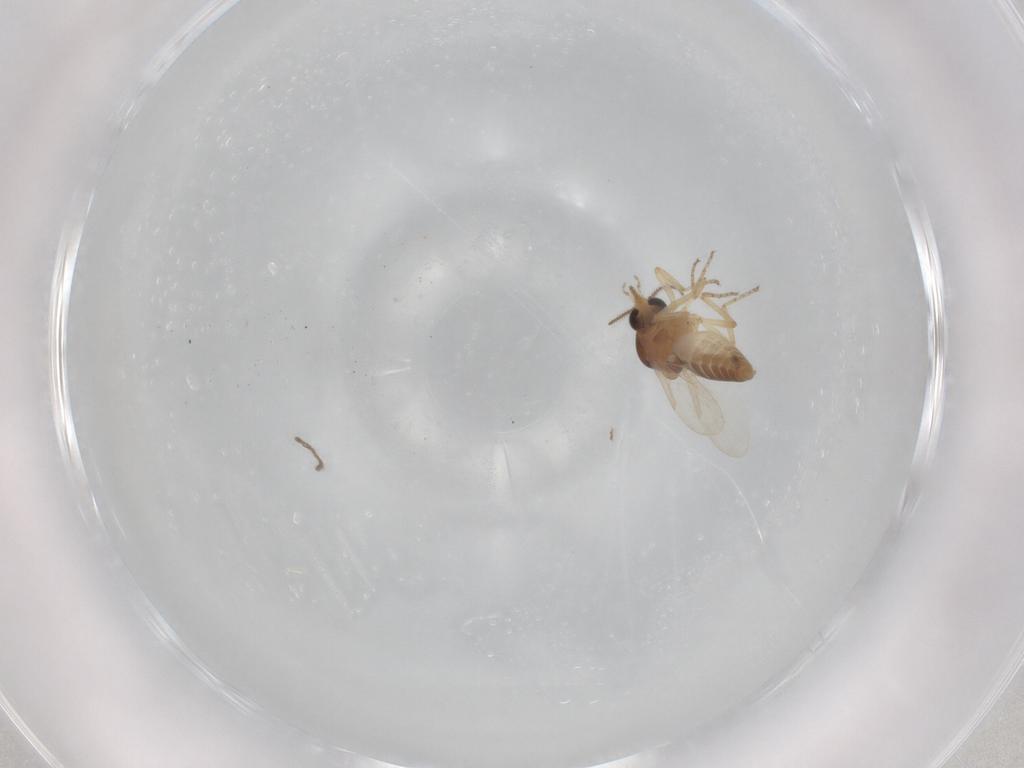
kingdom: Animalia
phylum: Arthropoda
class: Insecta
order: Diptera
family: Ceratopogonidae
